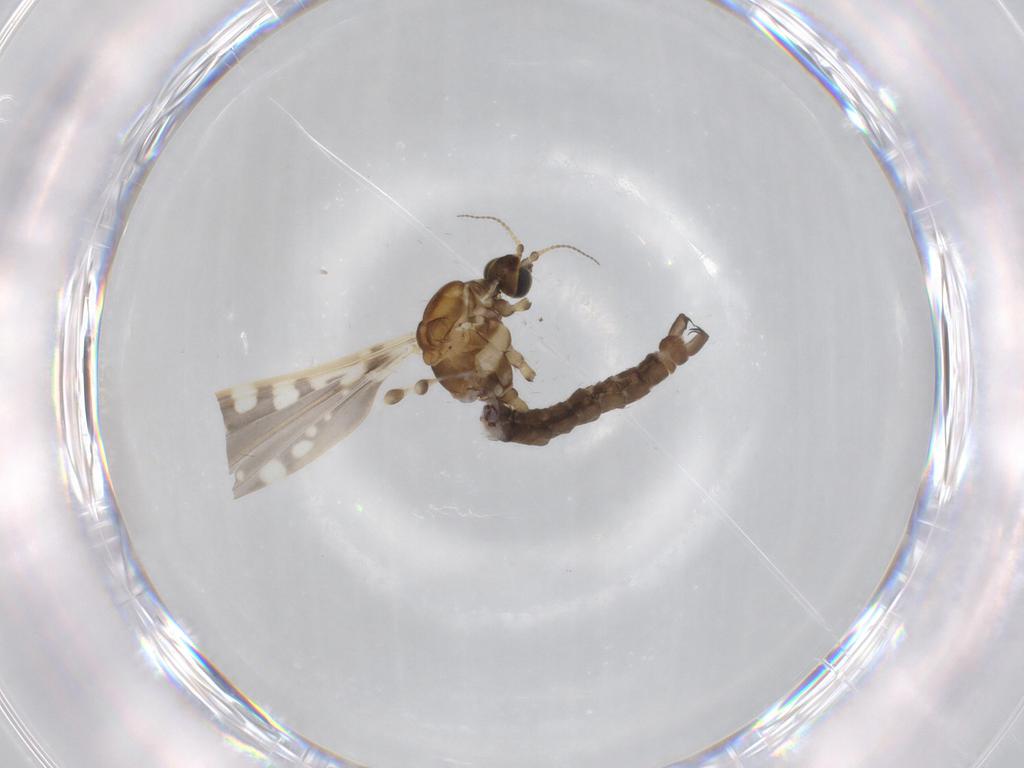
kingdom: Animalia
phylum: Arthropoda
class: Insecta
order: Diptera
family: Limoniidae
